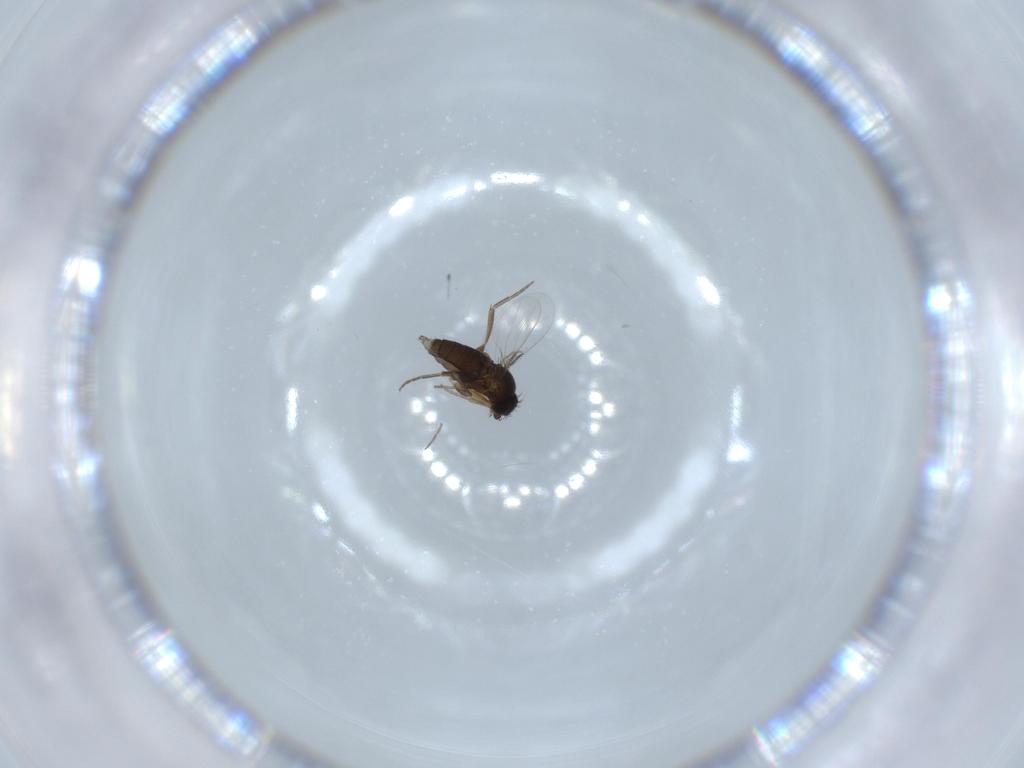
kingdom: Animalia
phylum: Arthropoda
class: Insecta
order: Diptera
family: Phoridae
